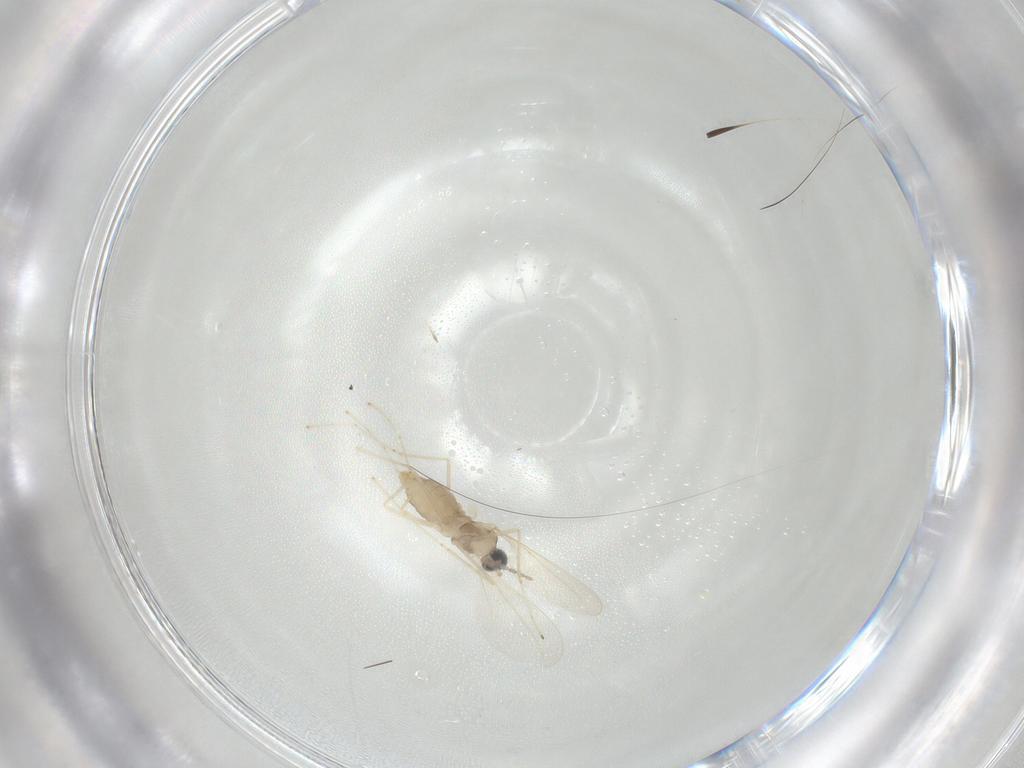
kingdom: Animalia
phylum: Arthropoda
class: Insecta
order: Diptera
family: Cecidomyiidae
